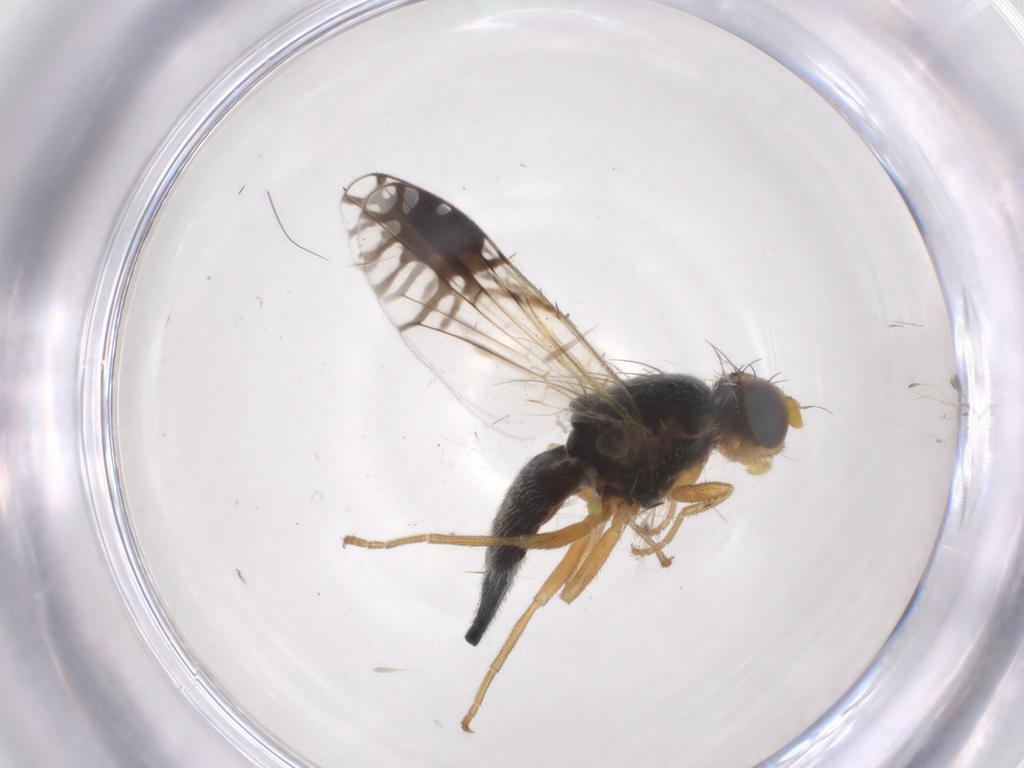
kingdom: Animalia
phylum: Arthropoda
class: Insecta
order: Diptera
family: Tephritidae
